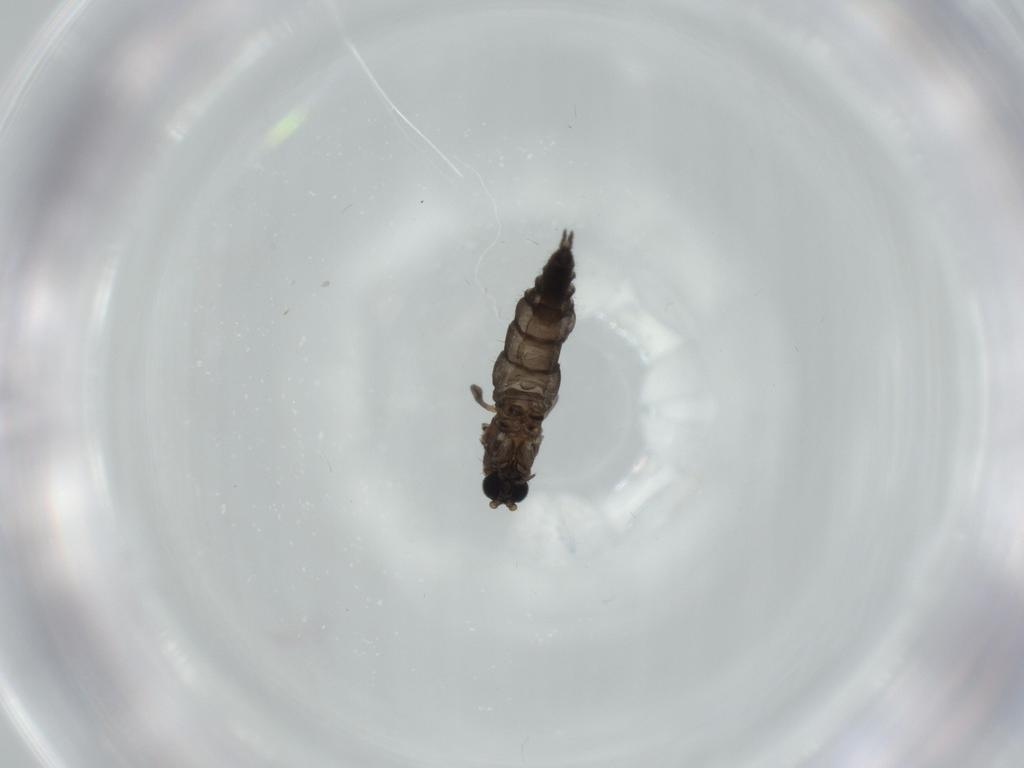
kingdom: Animalia
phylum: Arthropoda
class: Insecta
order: Diptera
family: Sciaridae
